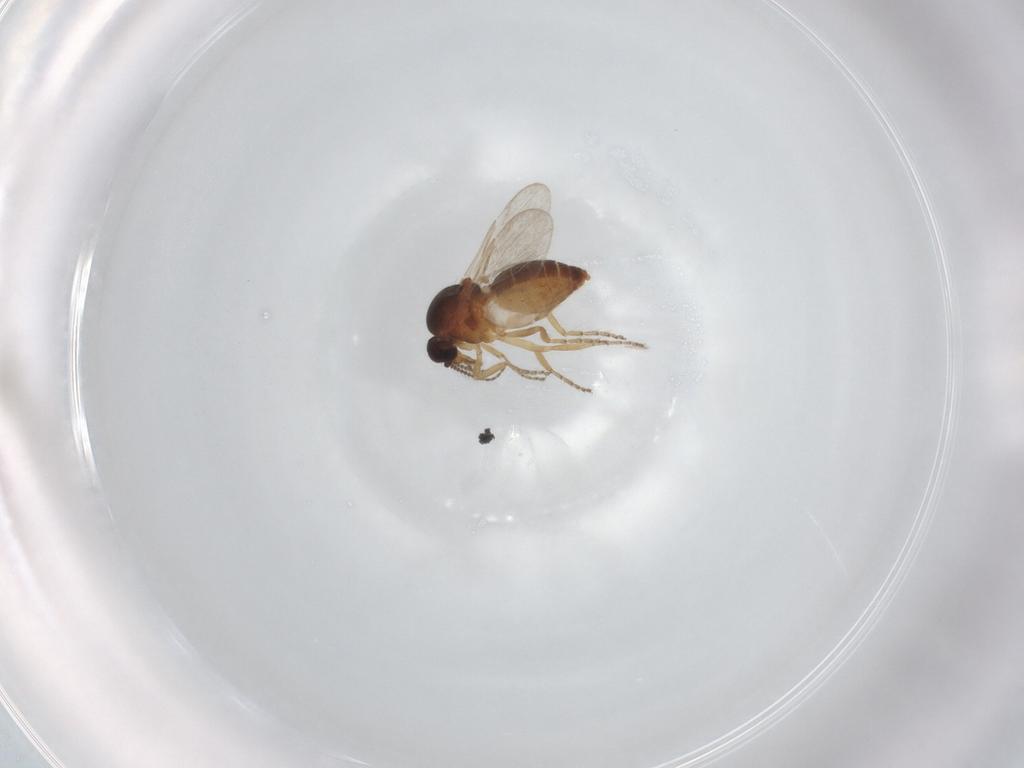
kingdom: Animalia
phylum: Arthropoda
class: Insecta
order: Diptera
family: Ceratopogonidae
